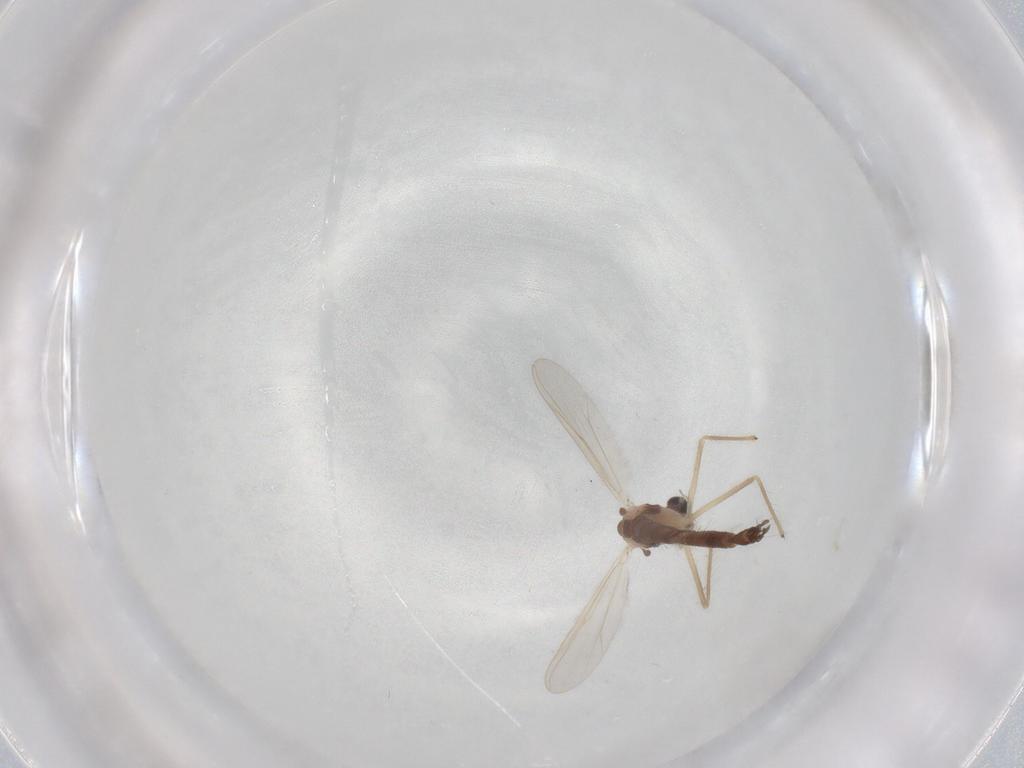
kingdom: Animalia
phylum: Arthropoda
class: Insecta
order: Diptera
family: Chironomidae
